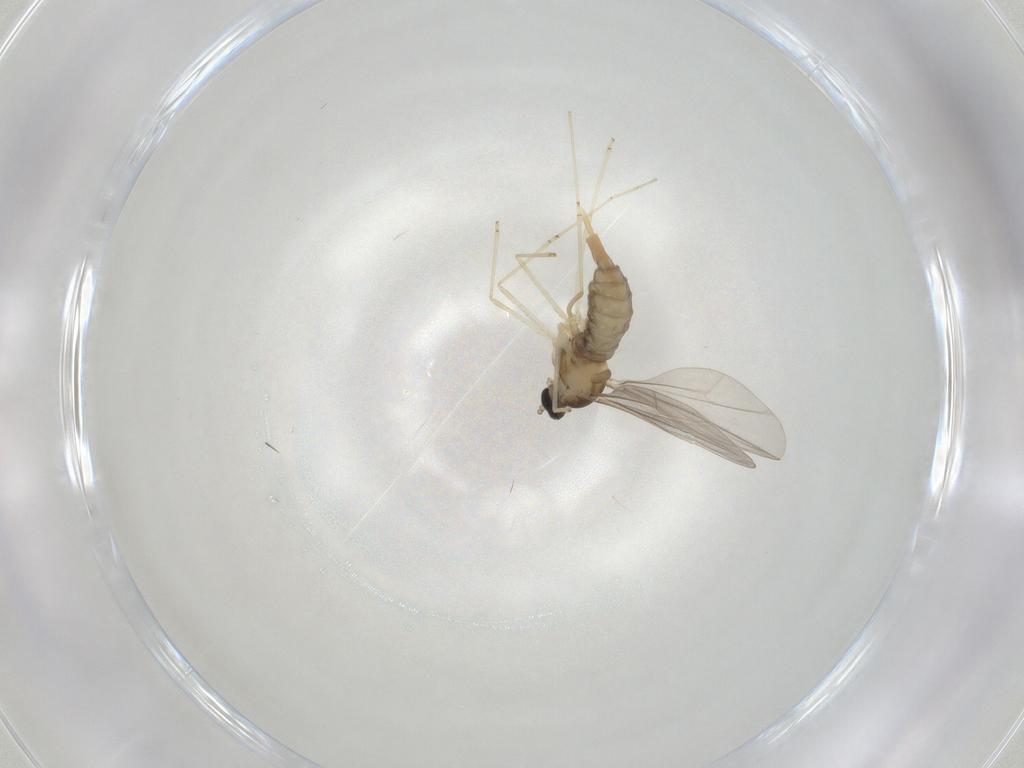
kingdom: Animalia
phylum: Arthropoda
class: Insecta
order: Diptera
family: Cecidomyiidae
